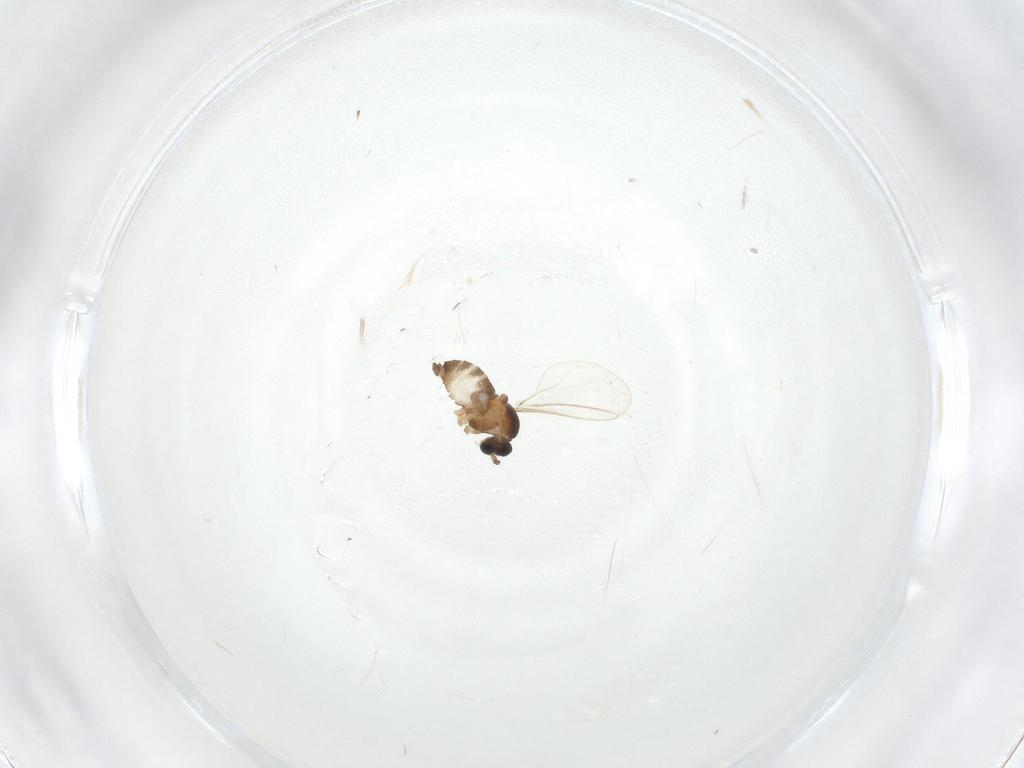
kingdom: Animalia
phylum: Arthropoda
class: Insecta
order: Diptera
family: Cecidomyiidae
